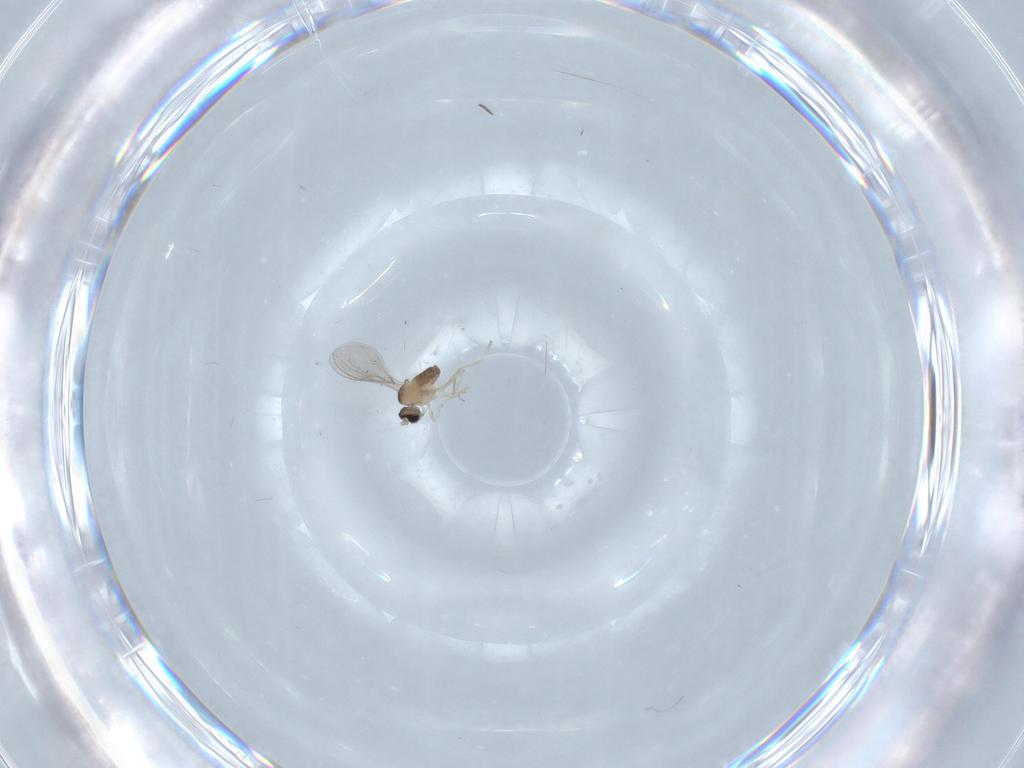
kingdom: Animalia
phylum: Arthropoda
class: Insecta
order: Diptera
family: Cecidomyiidae
